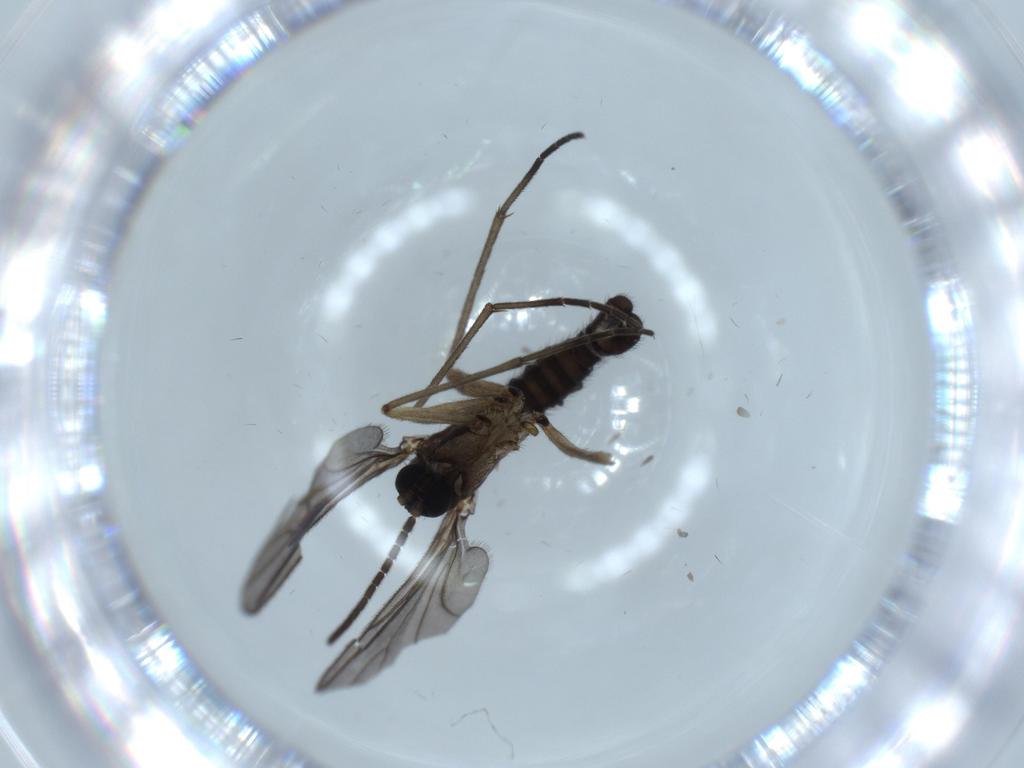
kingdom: Animalia
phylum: Arthropoda
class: Insecta
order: Diptera
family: Sciaridae
